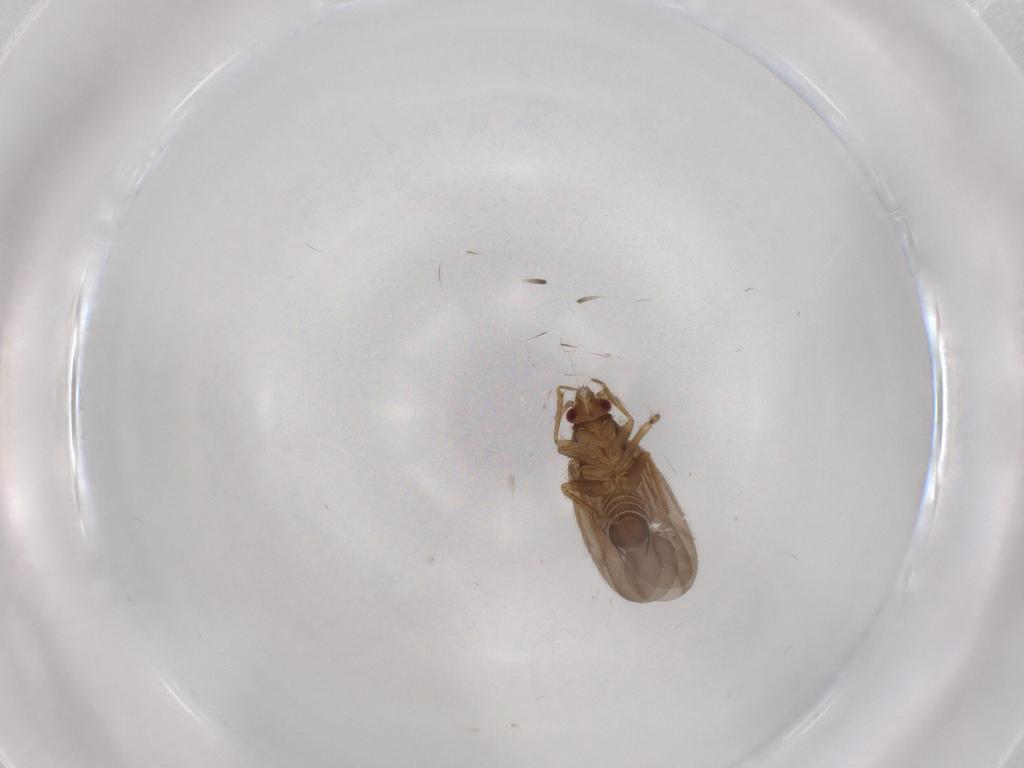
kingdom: Animalia
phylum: Arthropoda
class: Insecta
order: Hemiptera
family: Ceratocombidae
